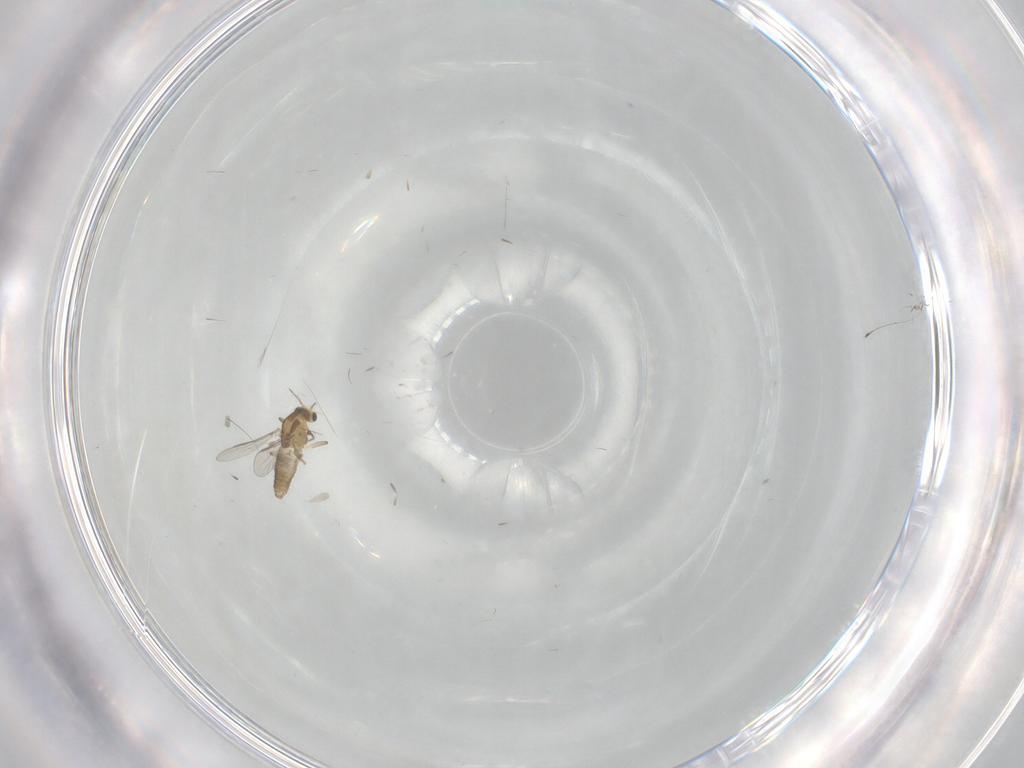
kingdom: Animalia
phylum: Arthropoda
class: Insecta
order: Diptera
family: Chironomidae
